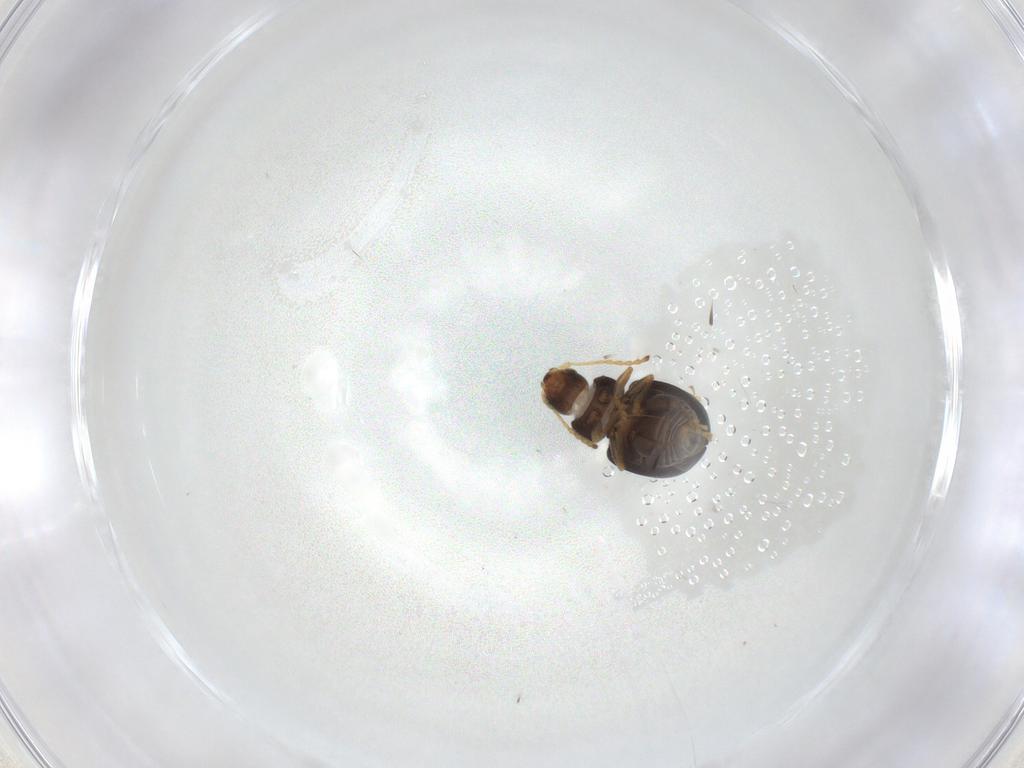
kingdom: Animalia
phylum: Arthropoda
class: Insecta
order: Coleoptera
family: Chrysomelidae
